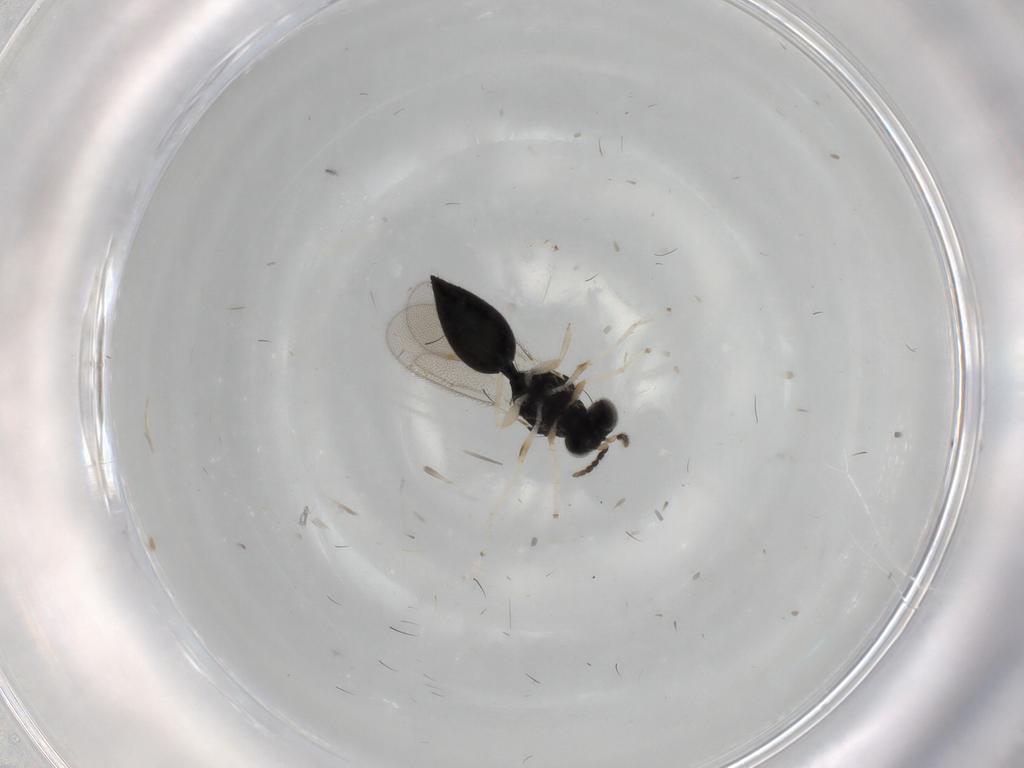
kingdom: Animalia
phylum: Arthropoda
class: Insecta
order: Hymenoptera
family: Eulophidae
